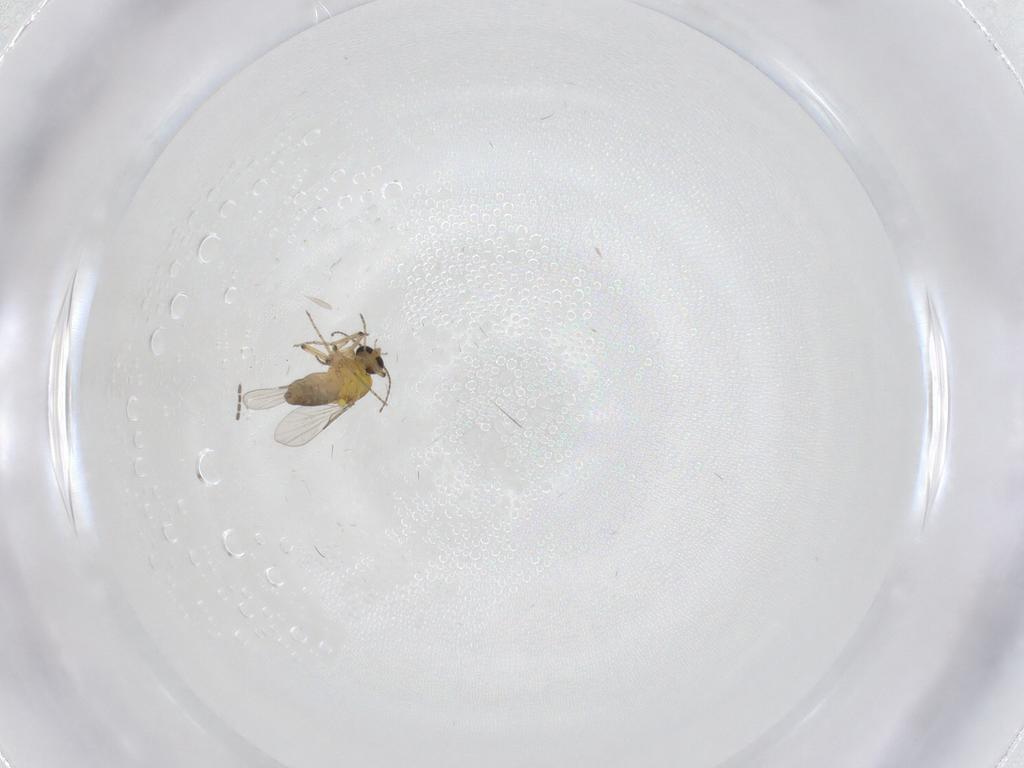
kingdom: Animalia
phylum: Arthropoda
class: Insecta
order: Diptera
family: Ceratopogonidae
